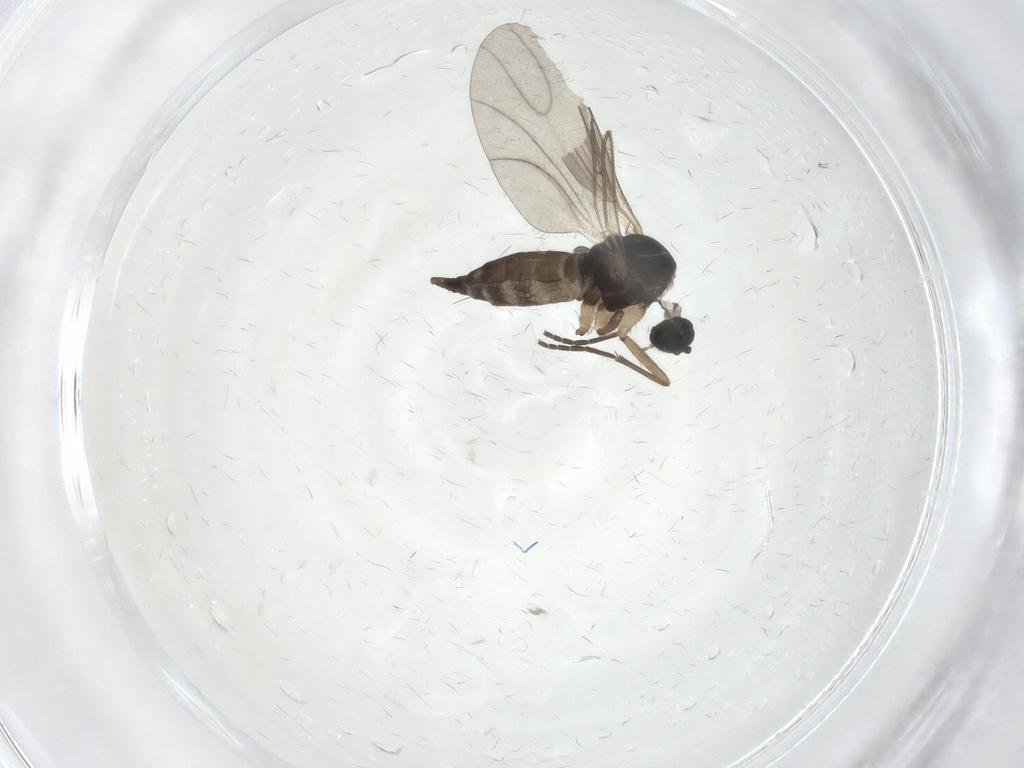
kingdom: Animalia
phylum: Arthropoda
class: Insecta
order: Diptera
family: Sciaridae
